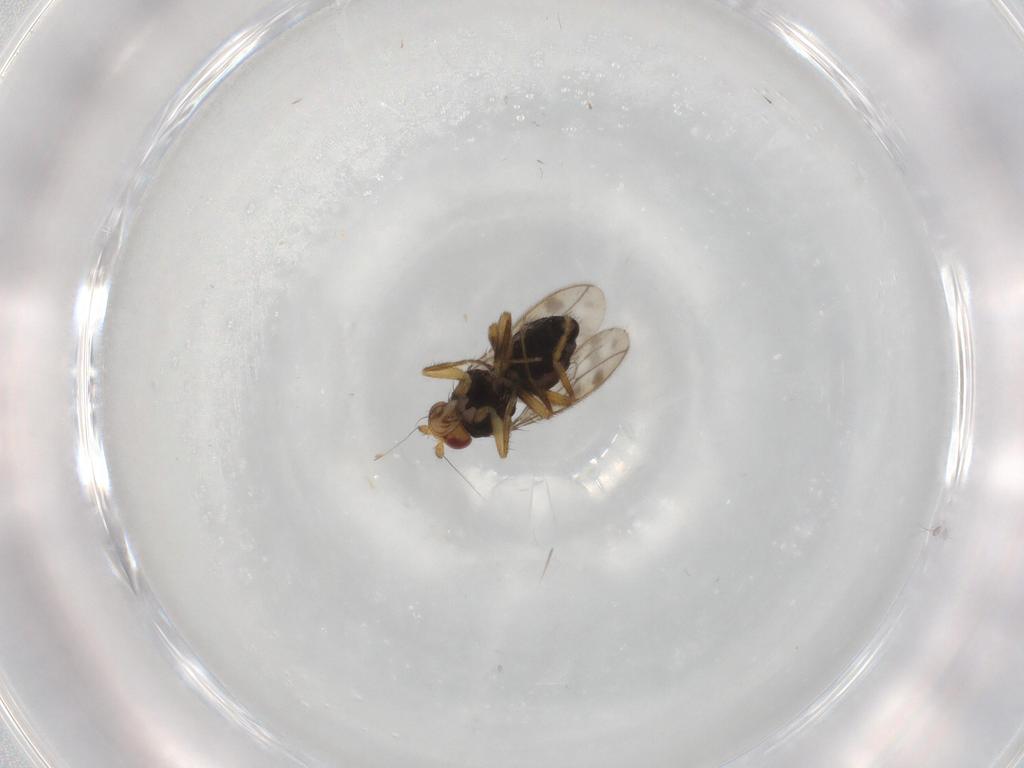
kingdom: Animalia
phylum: Arthropoda
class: Insecta
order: Diptera
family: Sphaeroceridae
